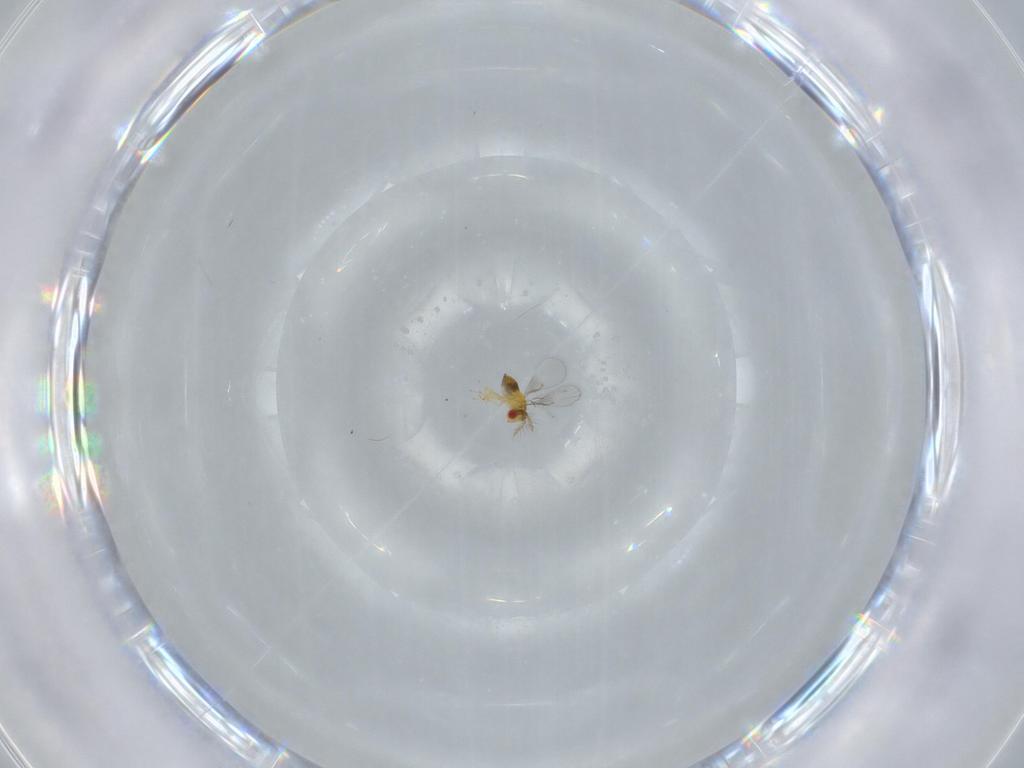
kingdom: Animalia
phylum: Arthropoda
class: Insecta
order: Hymenoptera
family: Trichogrammatidae
